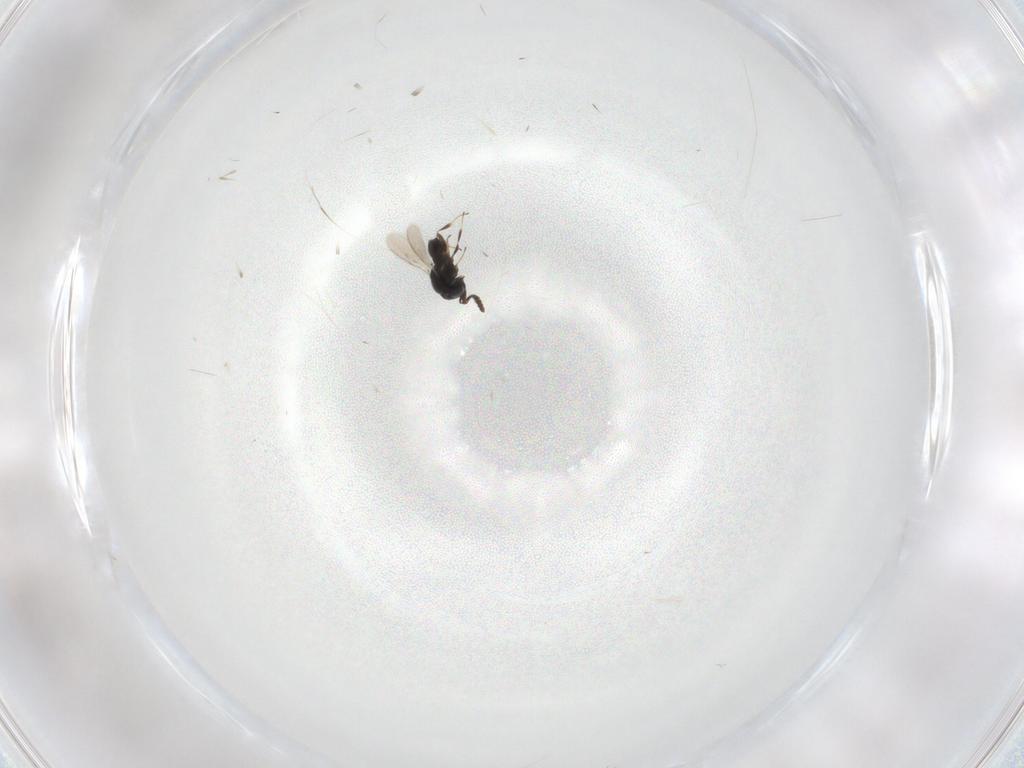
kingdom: Animalia
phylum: Arthropoda
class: Insecta
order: Hymenoptera
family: Scelionidae
